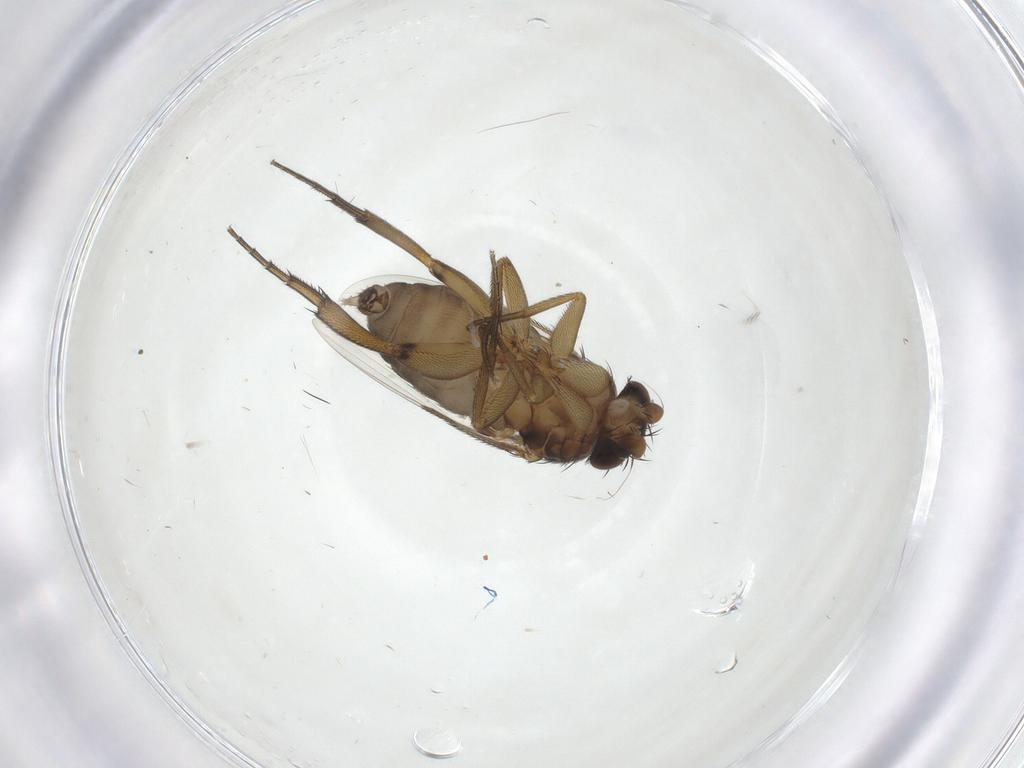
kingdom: Animalia
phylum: Arthropoda
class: Insecta
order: Diptera
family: Phoridae
